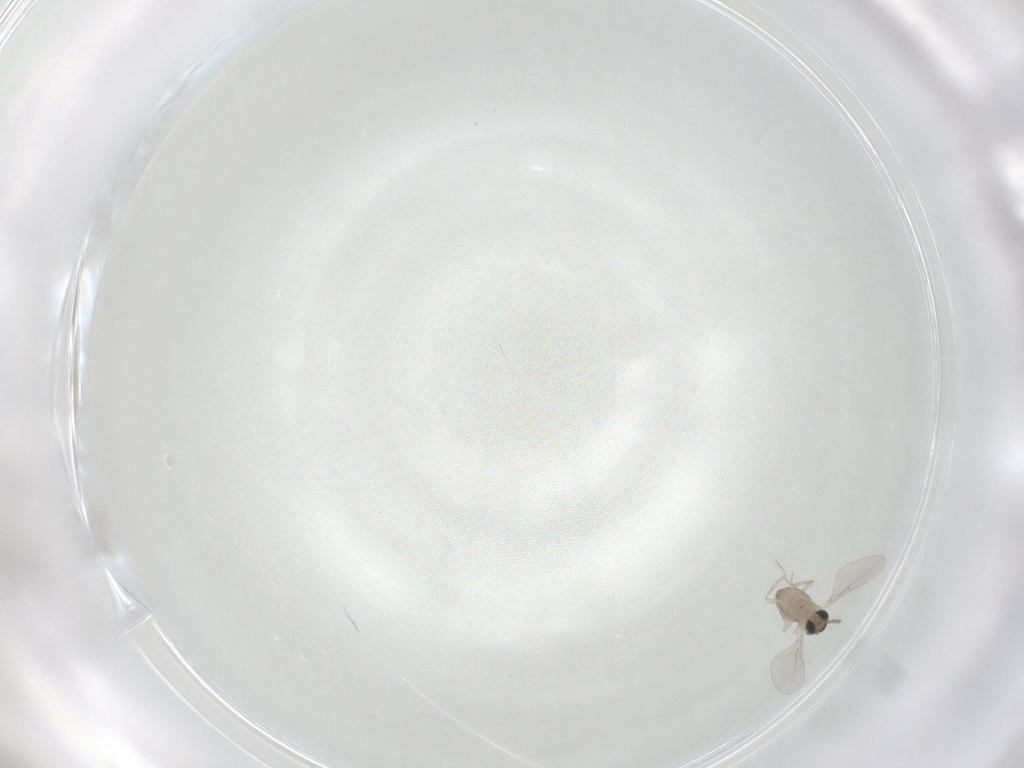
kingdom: Animalia
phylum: Arthropoda
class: Insecta
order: Diptera
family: Cecidomyiidae
